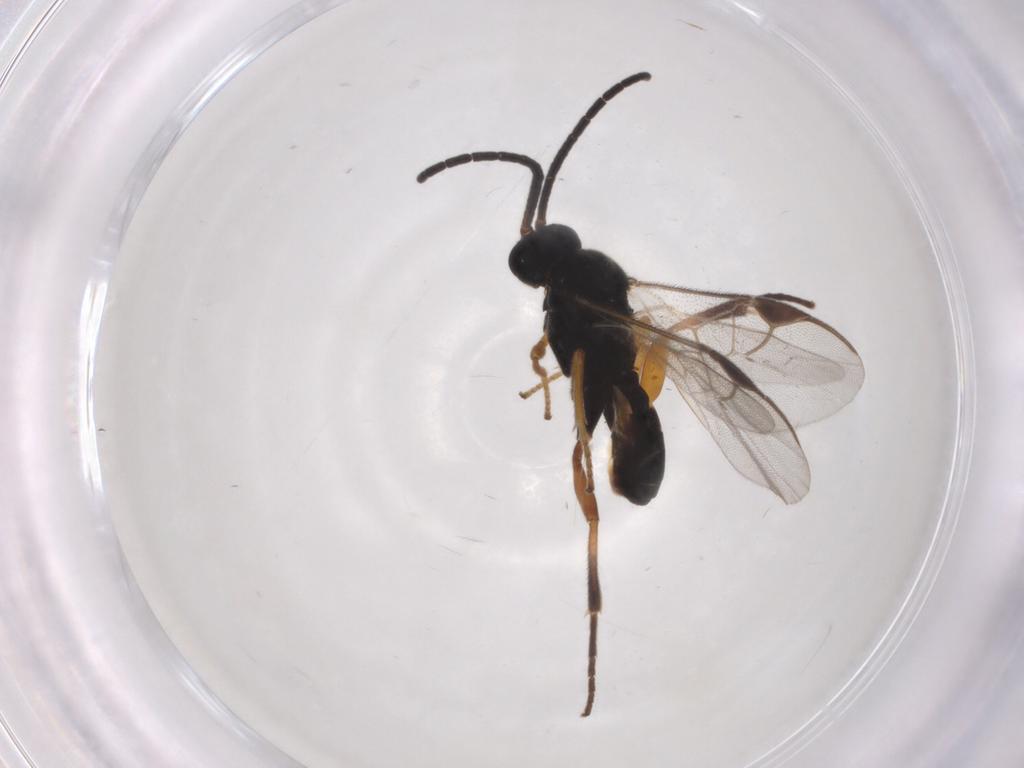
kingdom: Animalia
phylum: Arthropoda
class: Insecta
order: Hymenoptera
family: Braconidae
